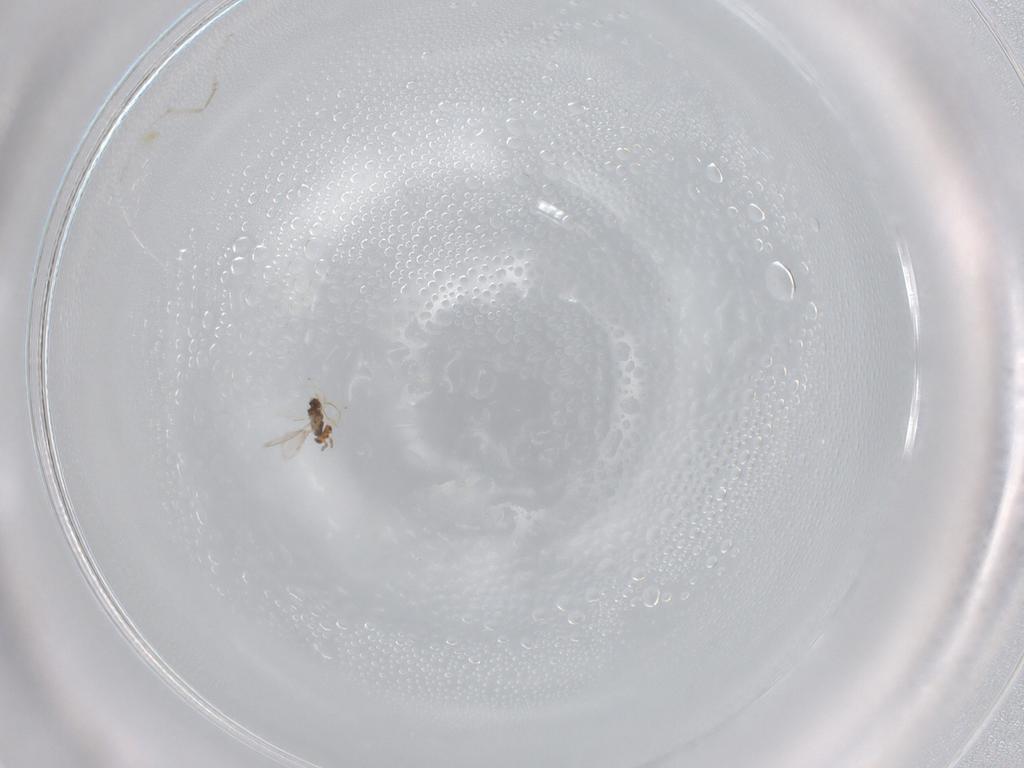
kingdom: Animalia
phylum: Arthropoda
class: Insecta
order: Hymenoptera
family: Aphelinidae
